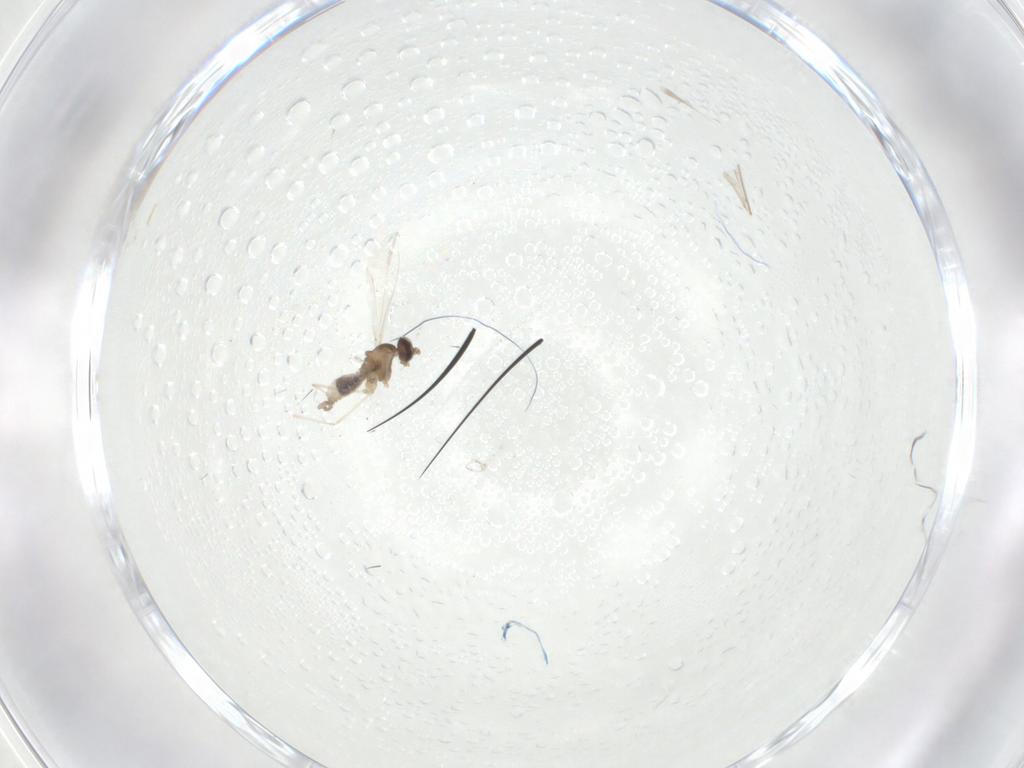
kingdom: Animalia
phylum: Arthropoda
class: Insecta
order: Diptera
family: Cecidomyiidae
